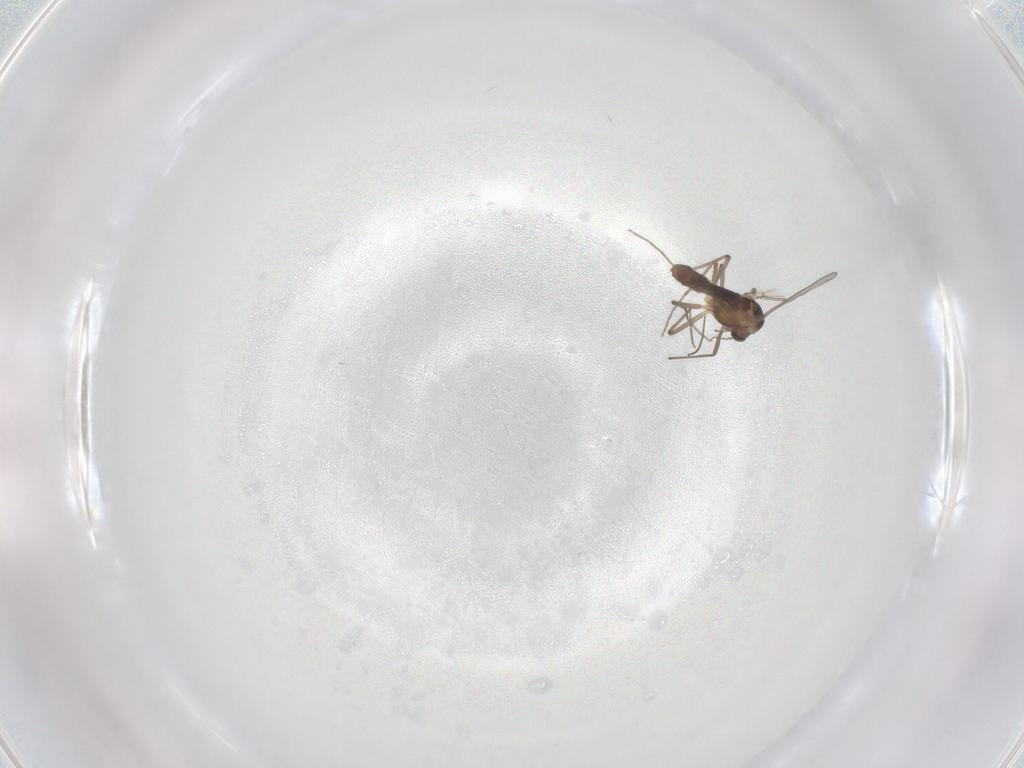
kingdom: Animalia
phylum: Arthropoda
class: Insecta
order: Diptera
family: Chironomidae
